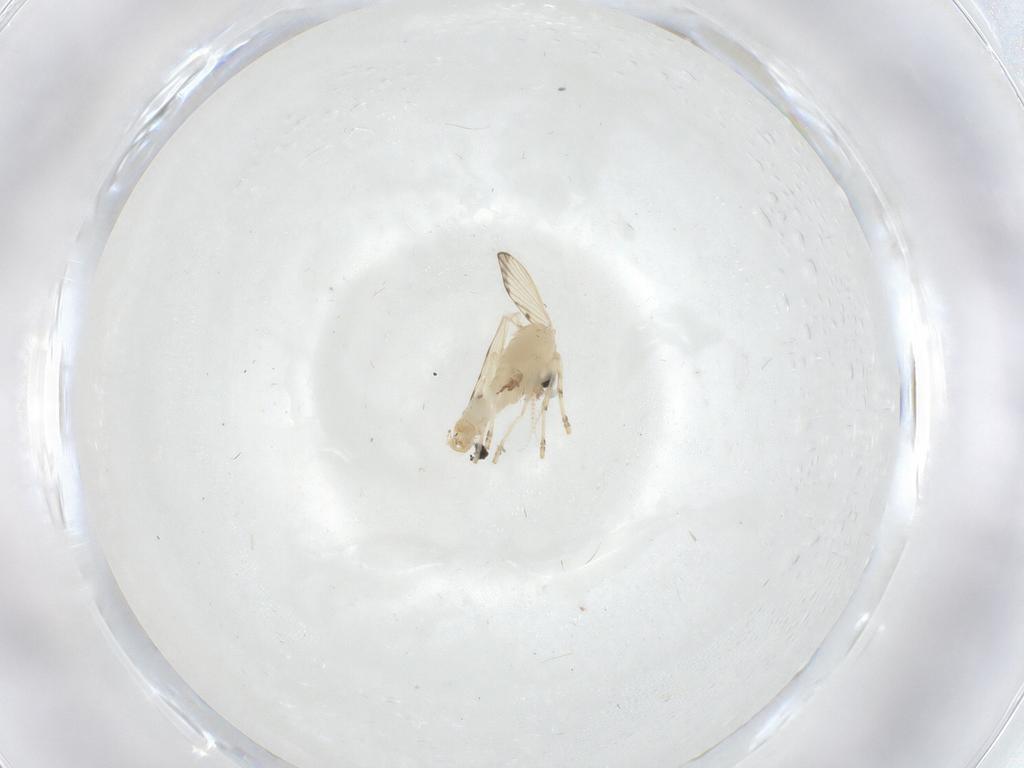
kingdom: Animalia
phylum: Arthropoda
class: Insecta
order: Diptera
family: Psychodidae
